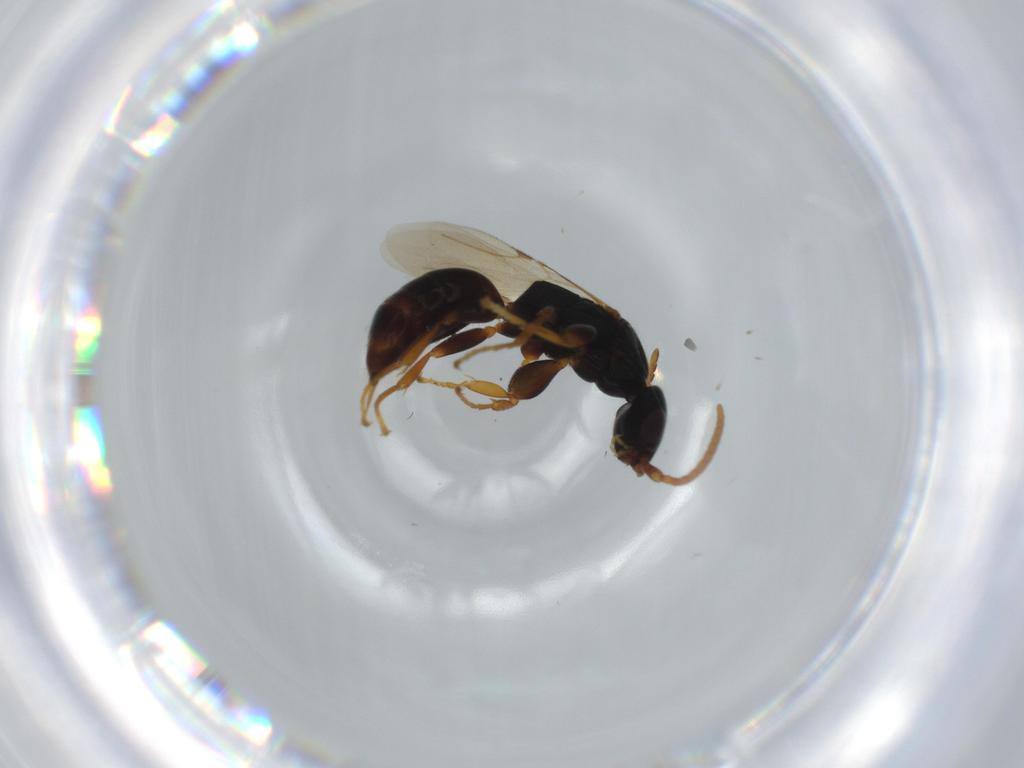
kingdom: Animalia
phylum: Arthropoda
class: Insecta
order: Hymenoptera
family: Bethylidae
